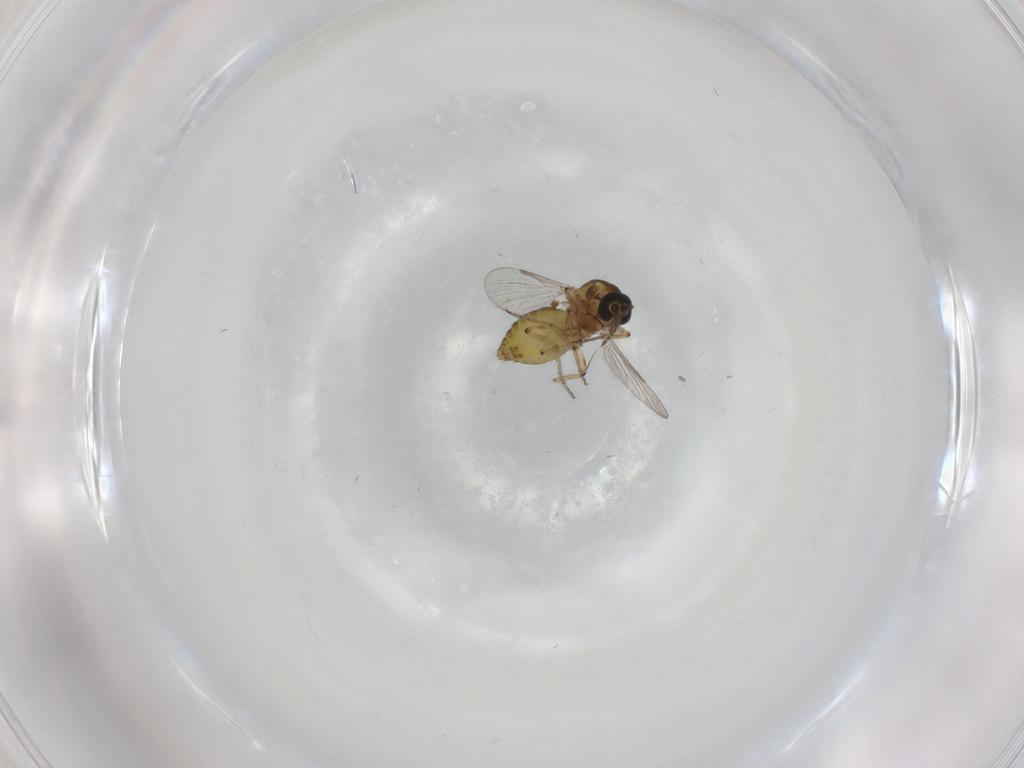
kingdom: Animalia
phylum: Arthropoda
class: Insecta
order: Diptera
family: Ceratopogonidae
